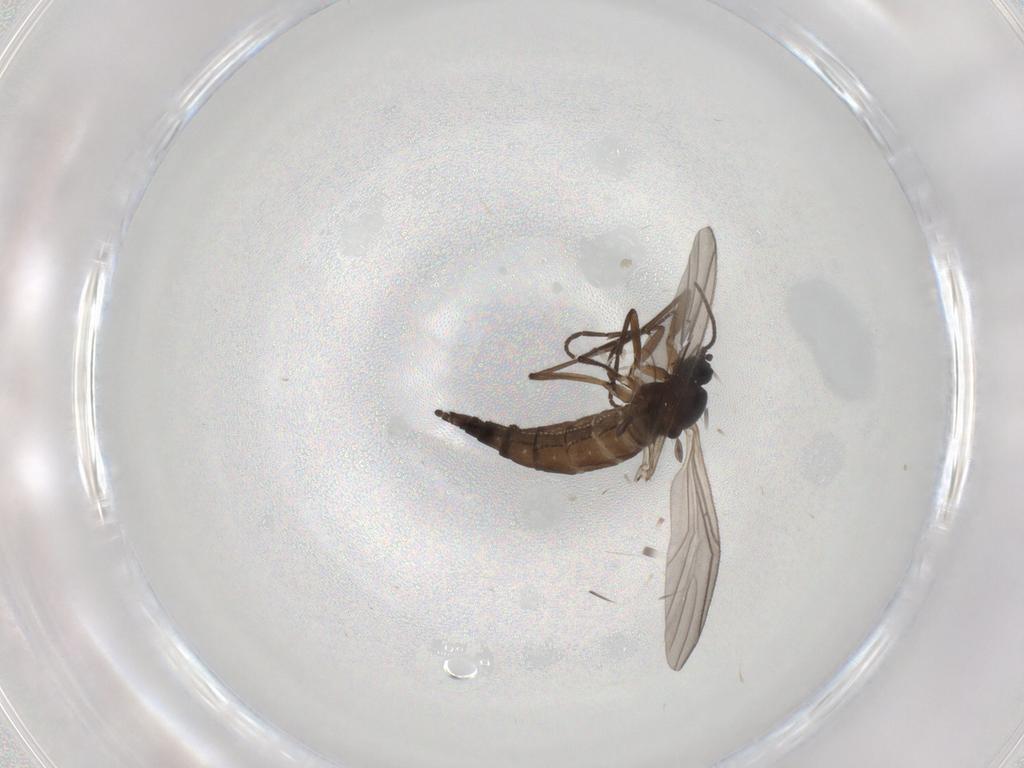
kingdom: Animalia
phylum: Arthropoda
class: Insecta
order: Diptera
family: Sciaridae
